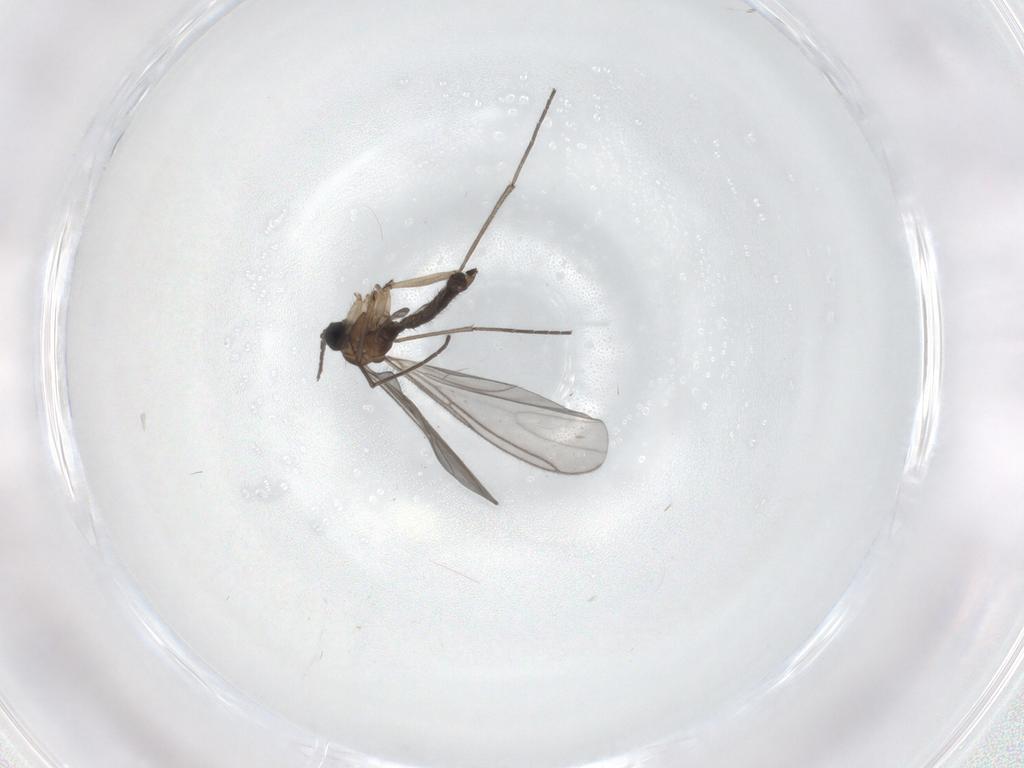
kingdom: Animalia
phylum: Arthropoda
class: Insecta
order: Diptera
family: Sciaridae
